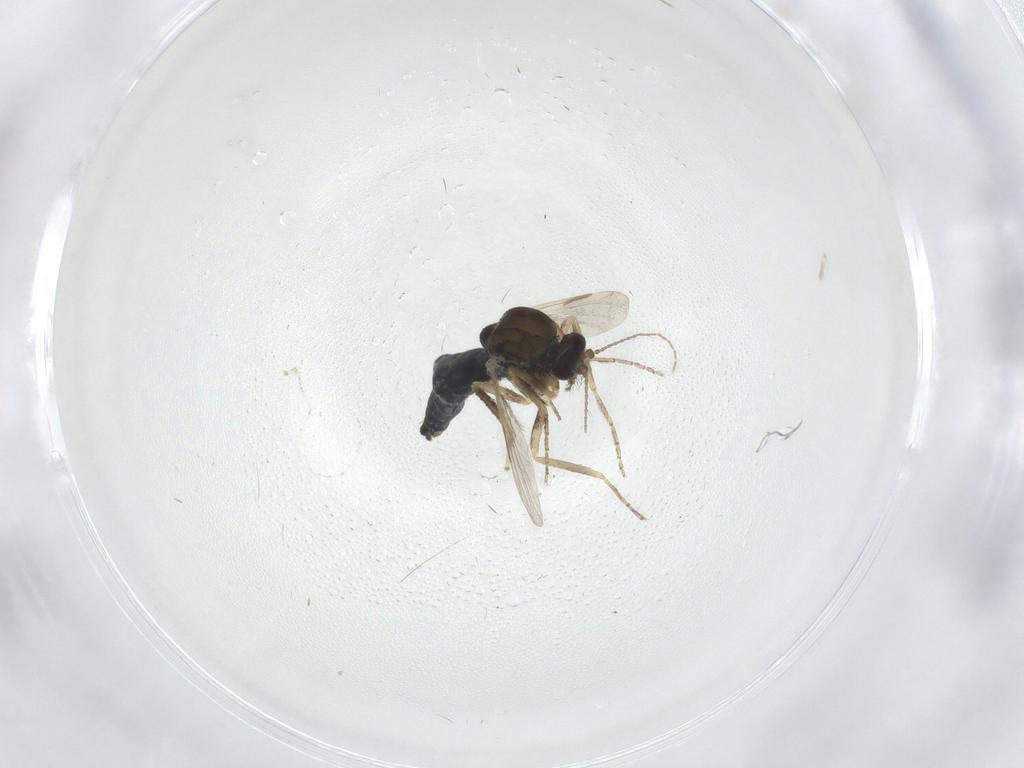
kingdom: Animalia
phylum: Arthropoda
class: Insecta
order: Diptera
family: Ceratopogonidae
